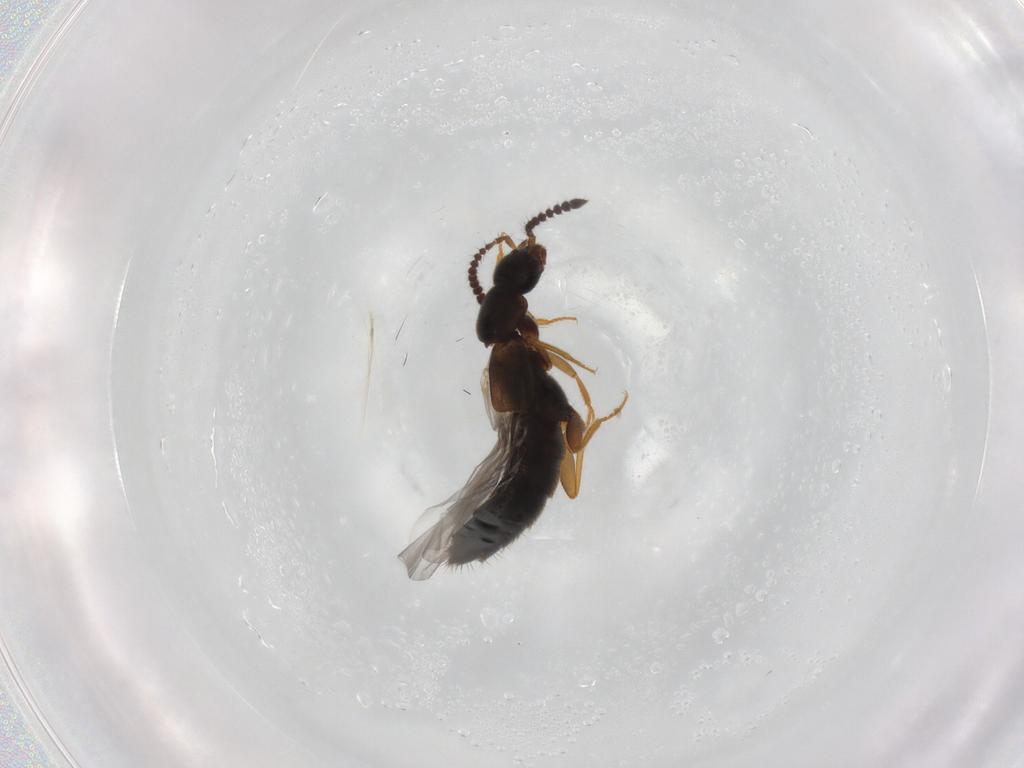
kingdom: Animalia
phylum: Arthropoda
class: Insecta
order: Coleoptera
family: Staphylinidae
